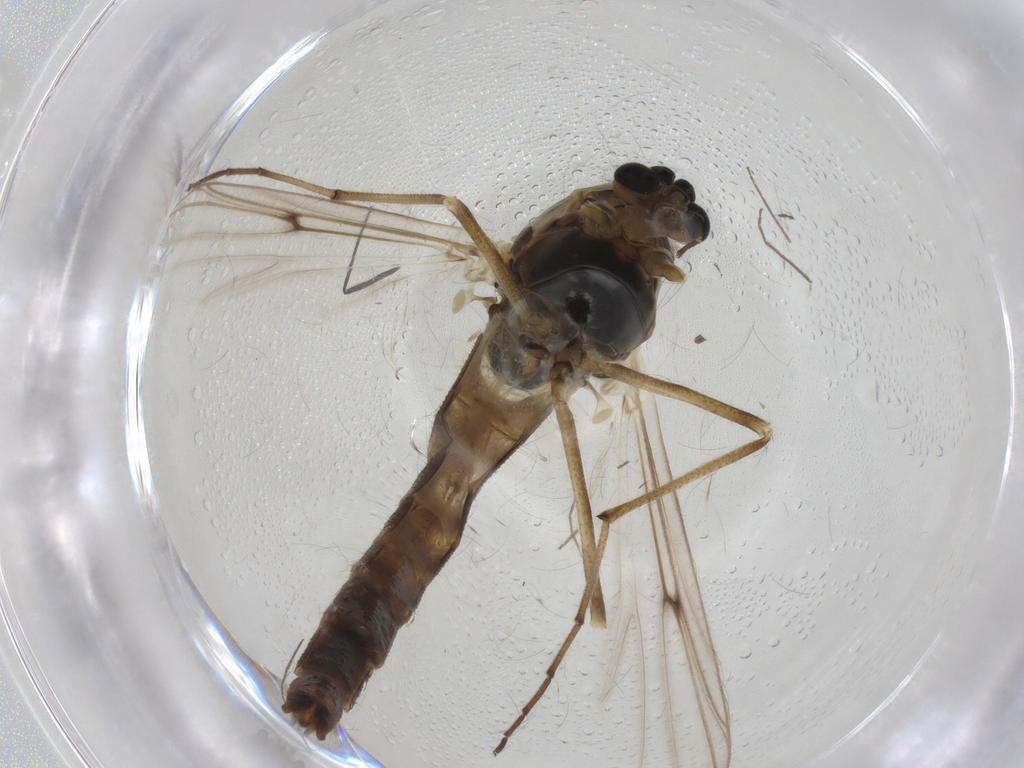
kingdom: Animalia
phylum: Arthropoda
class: Insecta
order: Diptera
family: Chironomidae
